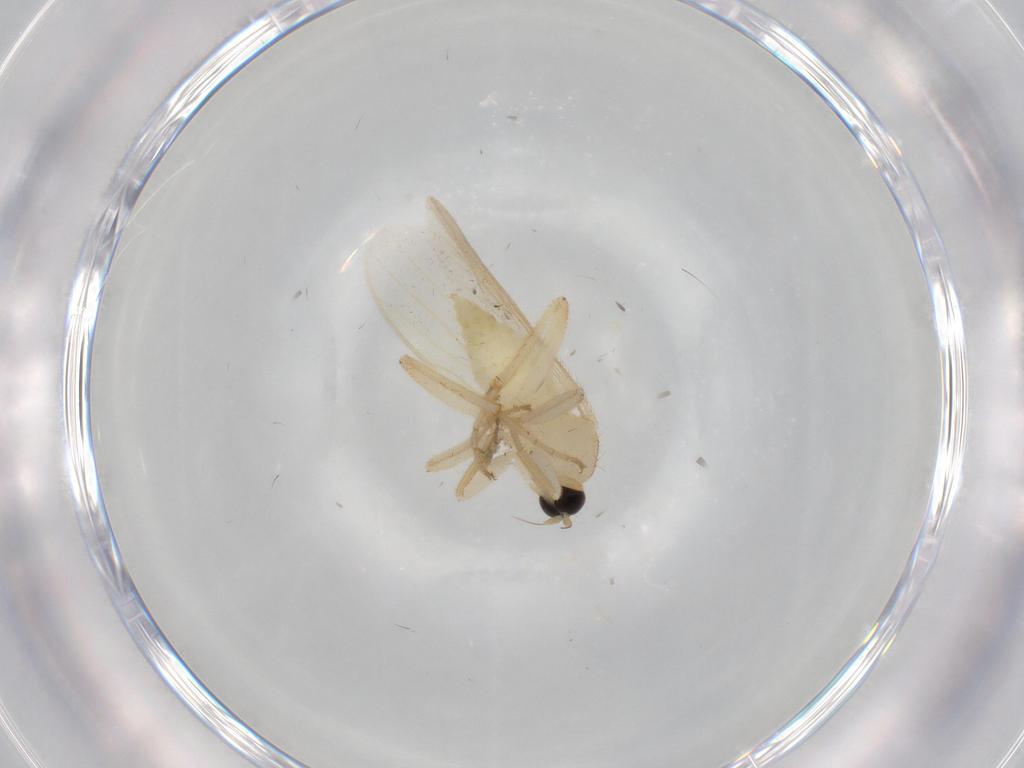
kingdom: Animalia
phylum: Arthropoda
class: Insecta
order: Diptera
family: Hybotidae
